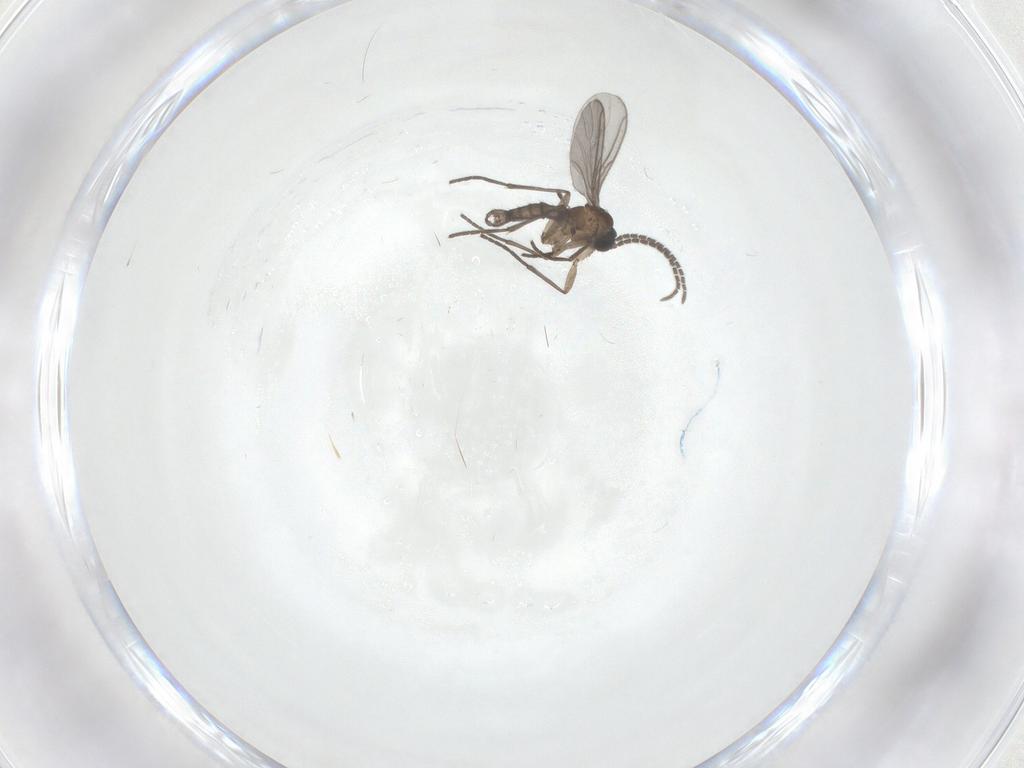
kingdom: Animalia
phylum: Arthropoda
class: Insecta
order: Diptera
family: Sciaridae
